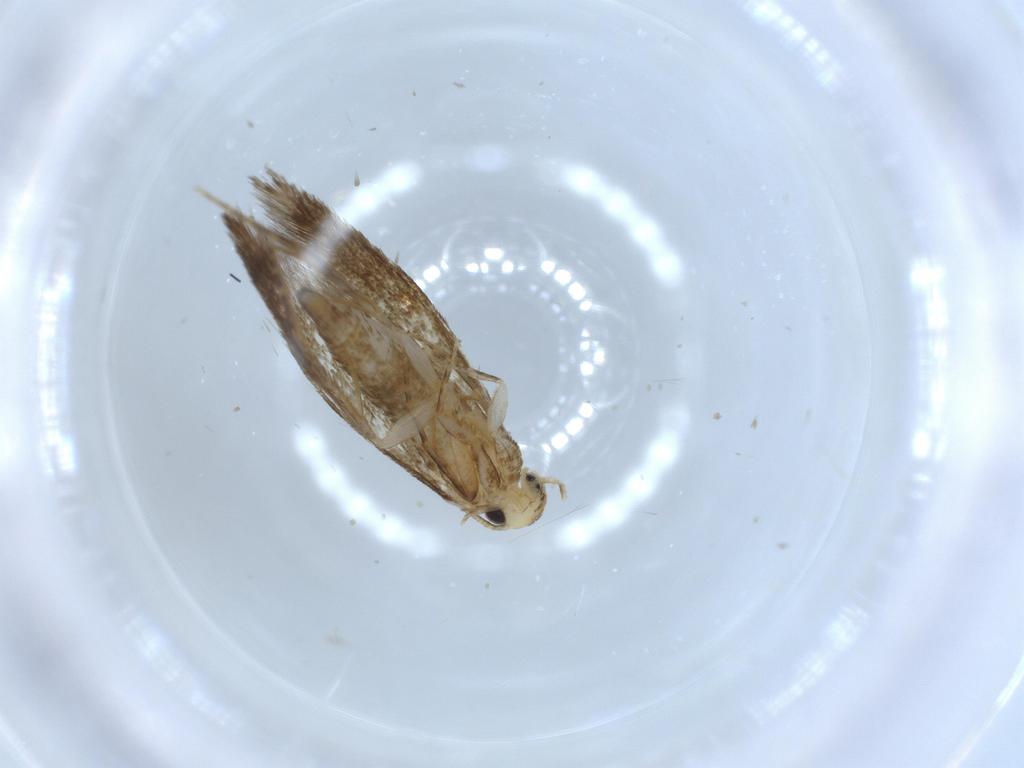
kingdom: Animalia
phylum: Arthropoda
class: Insecta
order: Lepidoptera
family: Tineidae
